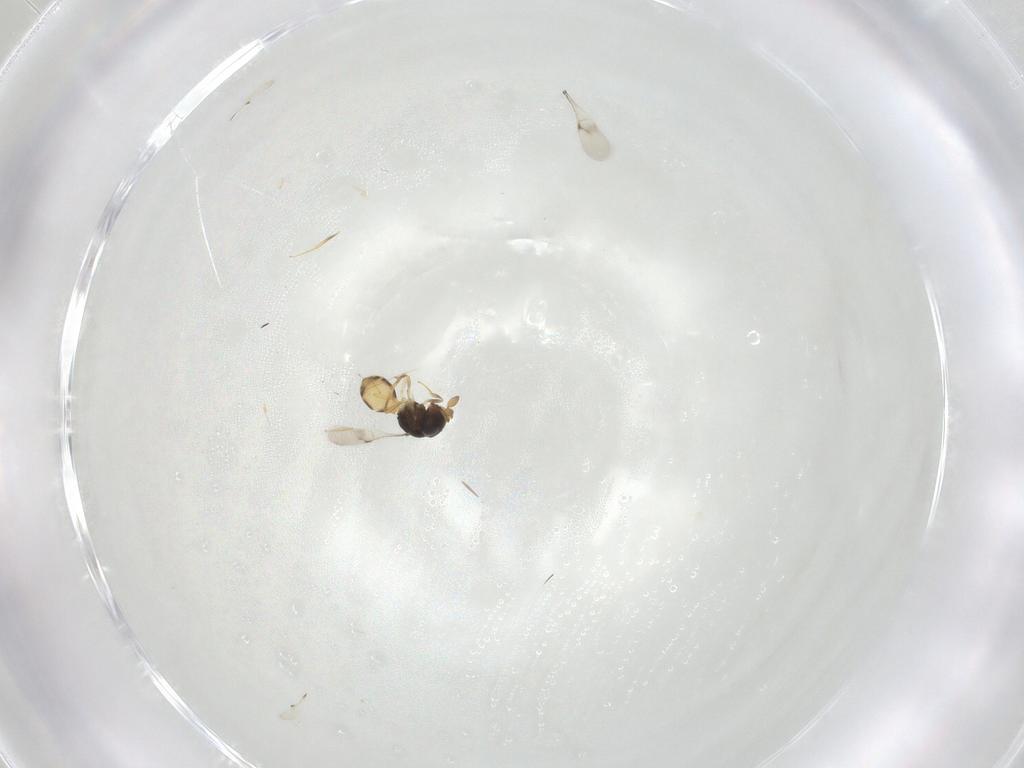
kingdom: Animalia
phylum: Arthropoda
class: Insecta
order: Hymenoptera
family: Scelionidae
